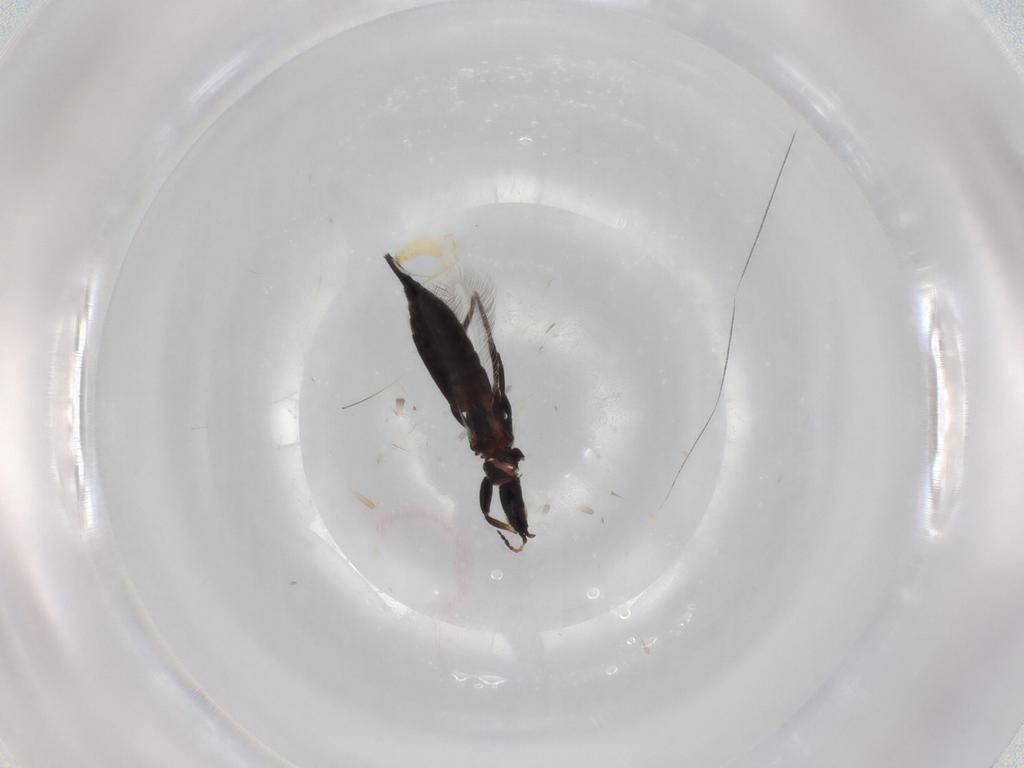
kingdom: Animalia
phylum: Arthropoda
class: Insecta
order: Thysanoptera
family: Phlaeothripidae
